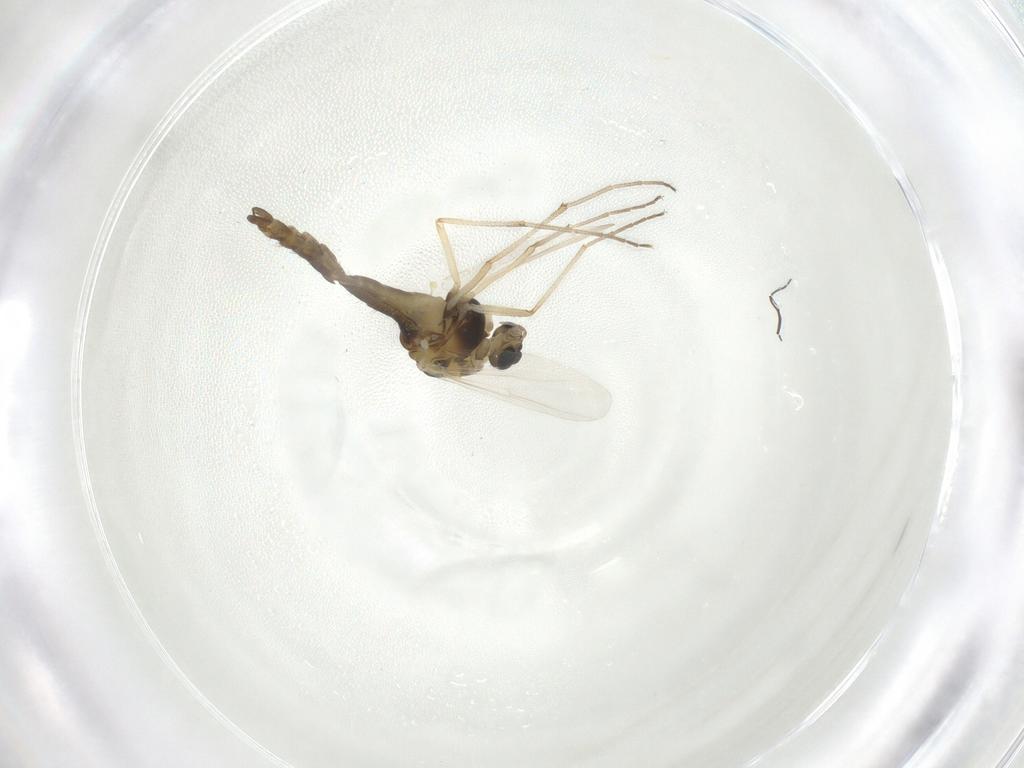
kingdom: Animalia
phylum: Arthropoda
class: Insecta
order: Diptera
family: Chironomidae
